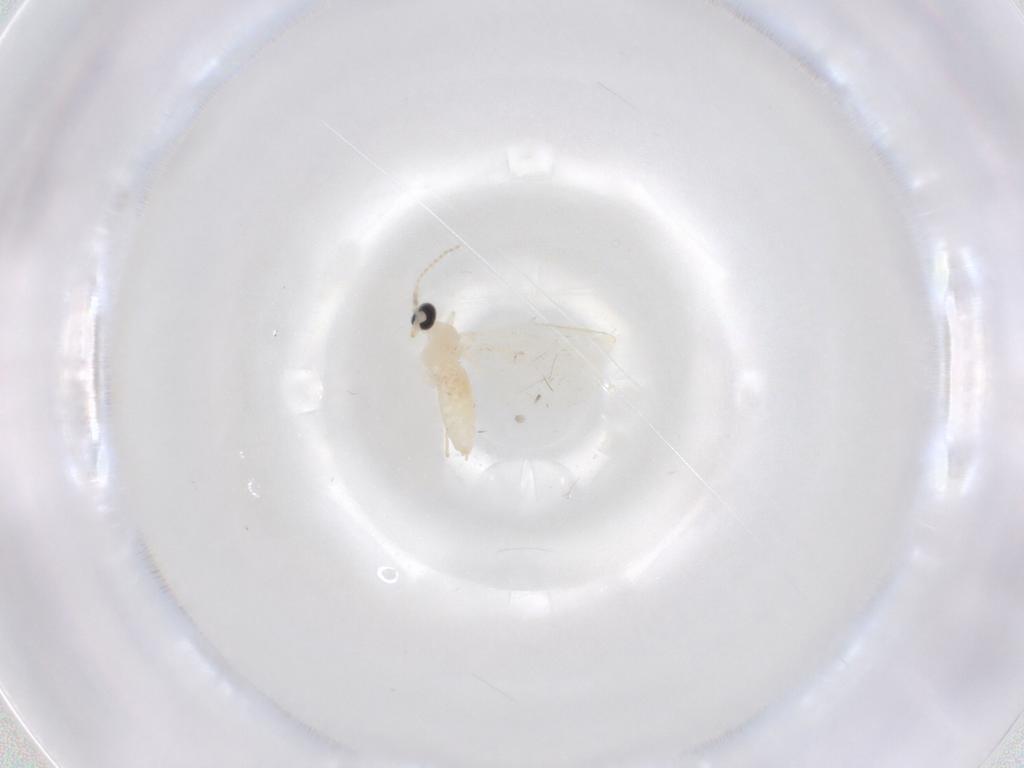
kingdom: Animalia
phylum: Arthropoda
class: Insecta
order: Diptera
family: Cecidomyiidae
